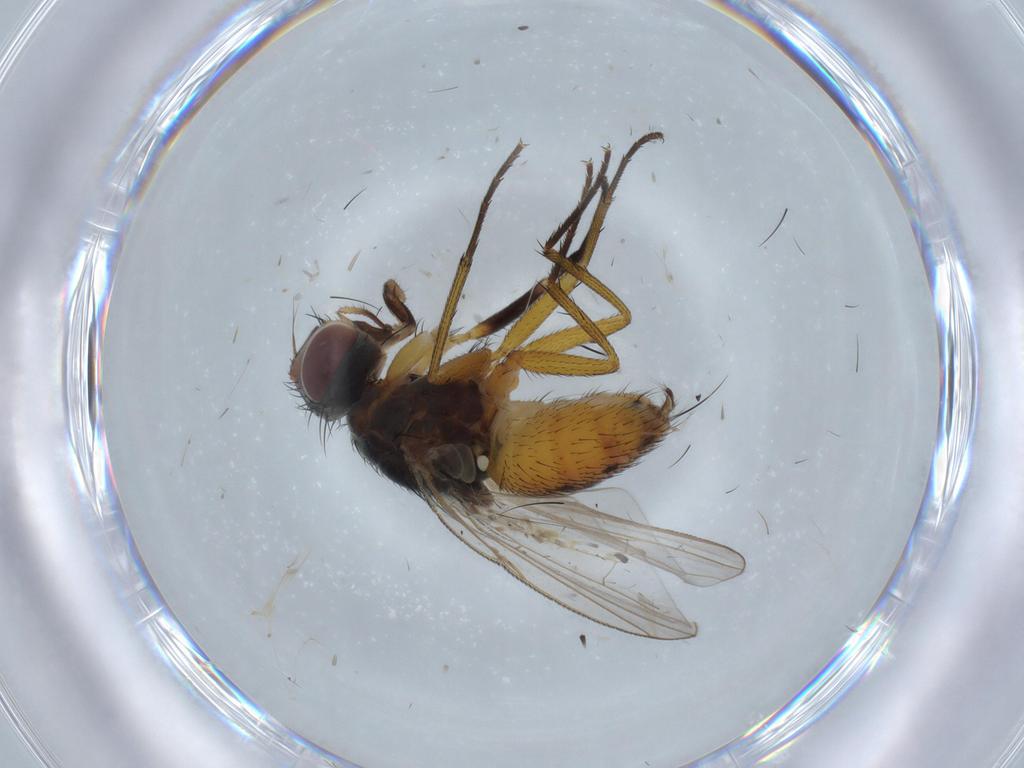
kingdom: Animalia
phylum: Arthropoda
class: Insecta
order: Diptera
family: Muscidae
